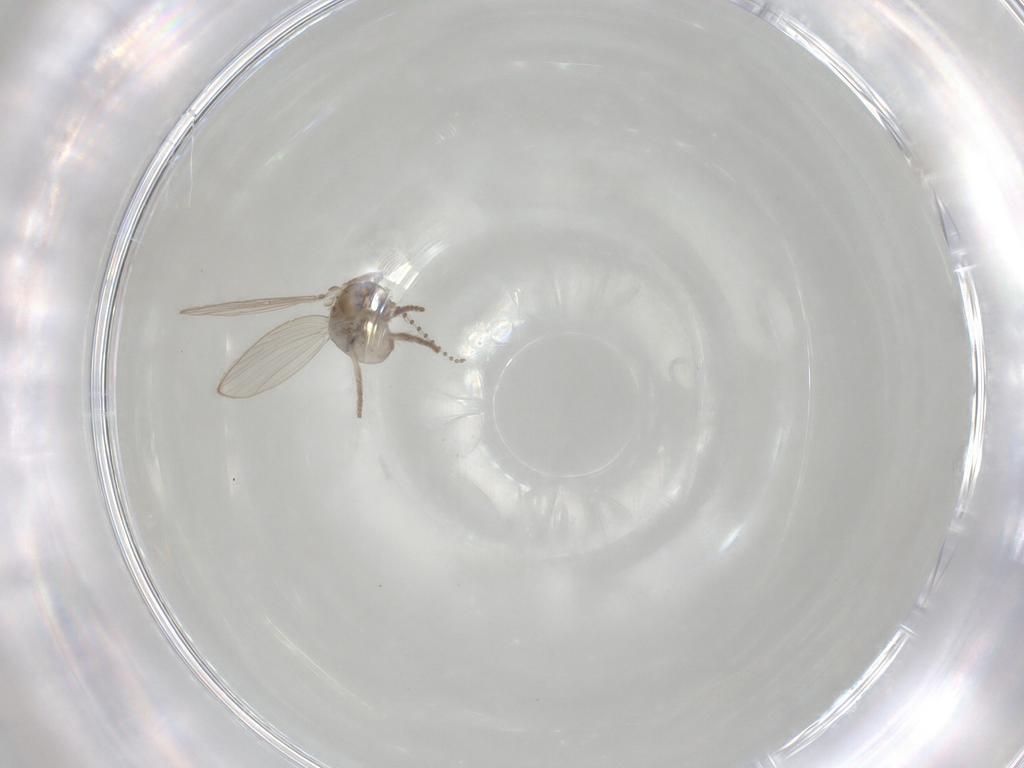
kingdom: Animalia
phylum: Arthropoda
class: Insecta
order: Diptera
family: Psychodidae
